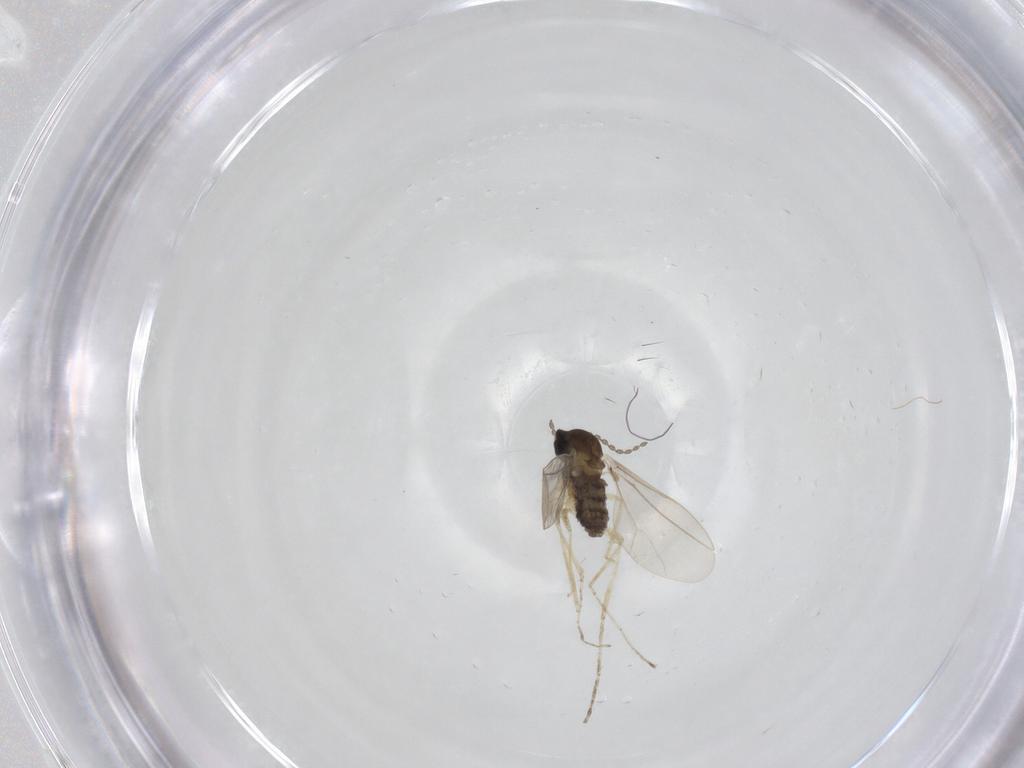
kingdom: Animalia
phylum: Arthropoda
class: Insecta
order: Diptera
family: Cecidomyiidae
